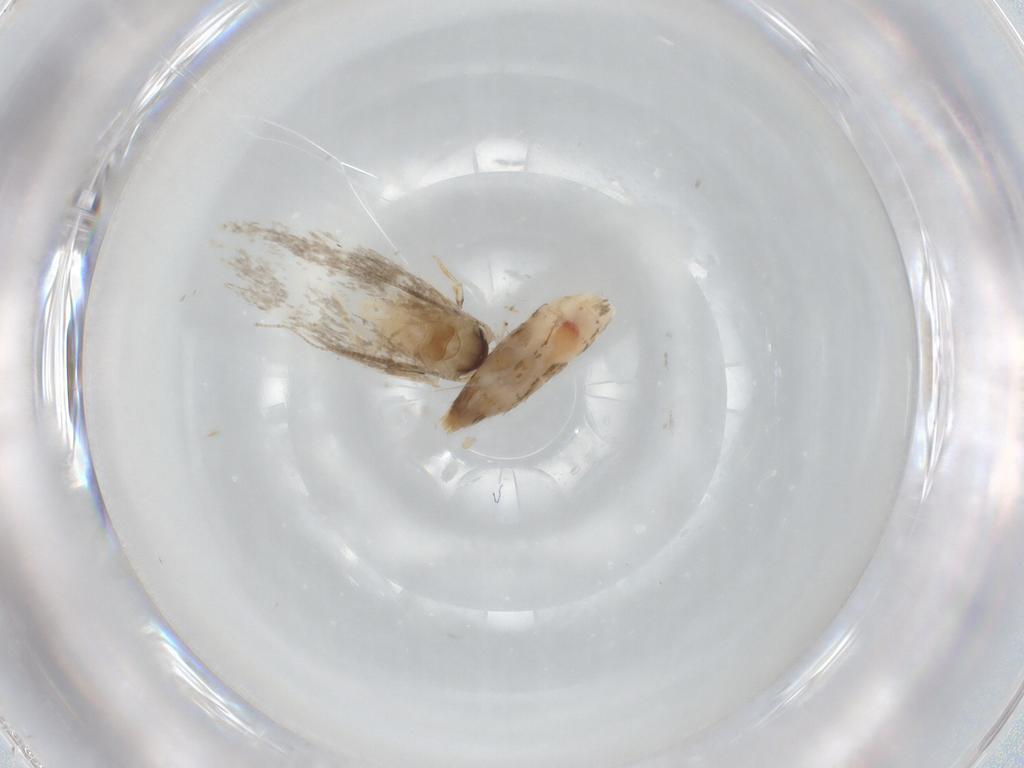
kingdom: Animalia
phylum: Arthropoda
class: Insecta
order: Lepidoptera
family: Tineidae
